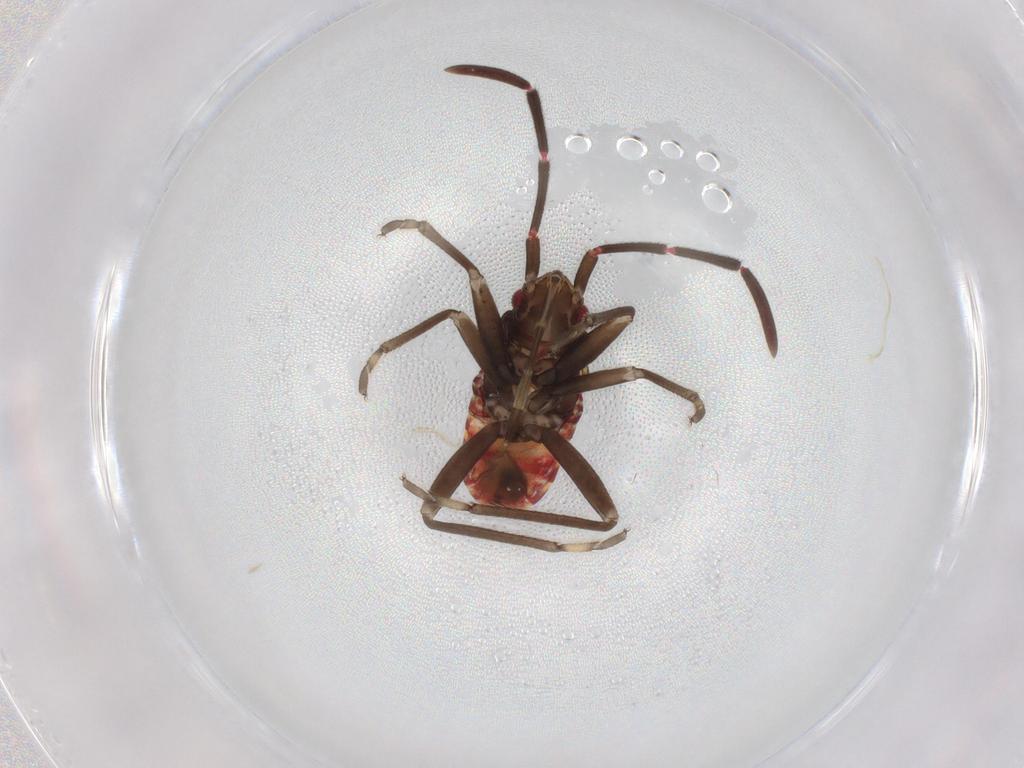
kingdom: Animalia
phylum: Arthropoda
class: Insecta
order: Hemiptera
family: Rhyparochromidae
